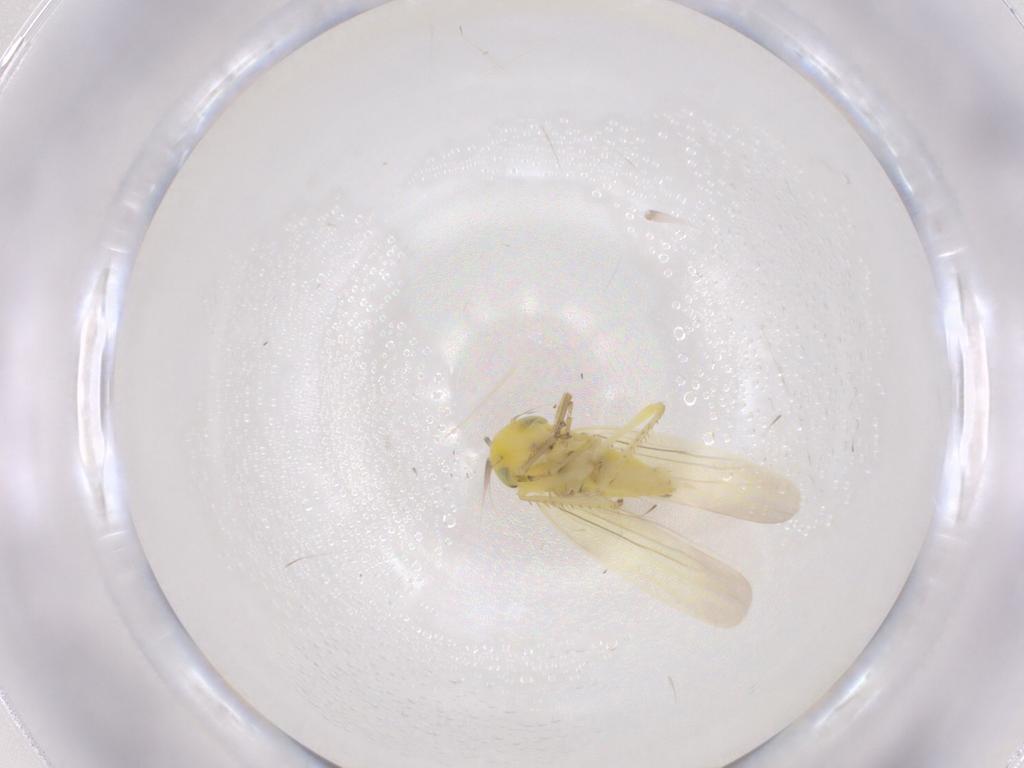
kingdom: Animalia
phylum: Arthropoda
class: Insecta
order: Hemiptera
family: Cicadellidae
